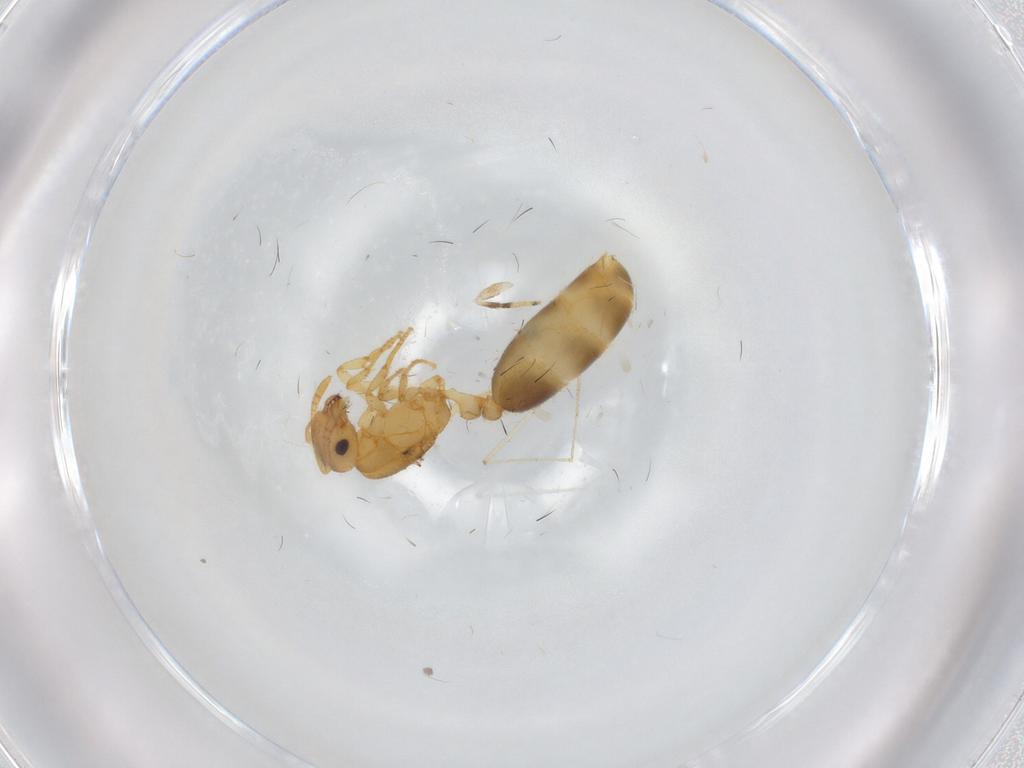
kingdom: Animalia
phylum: Arthropoda
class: Insecta
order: Hymenoptera
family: Formicidae
